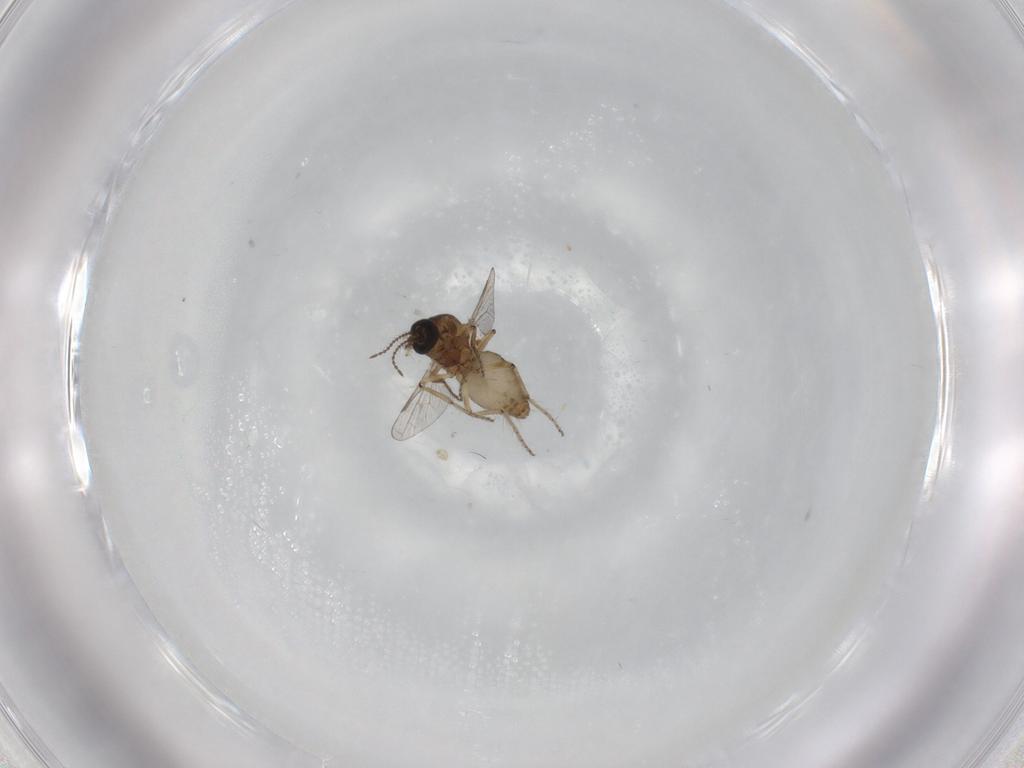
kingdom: Animalia
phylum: Arthropoda
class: Insecta
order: Diptera
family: Ceratopogonidae
